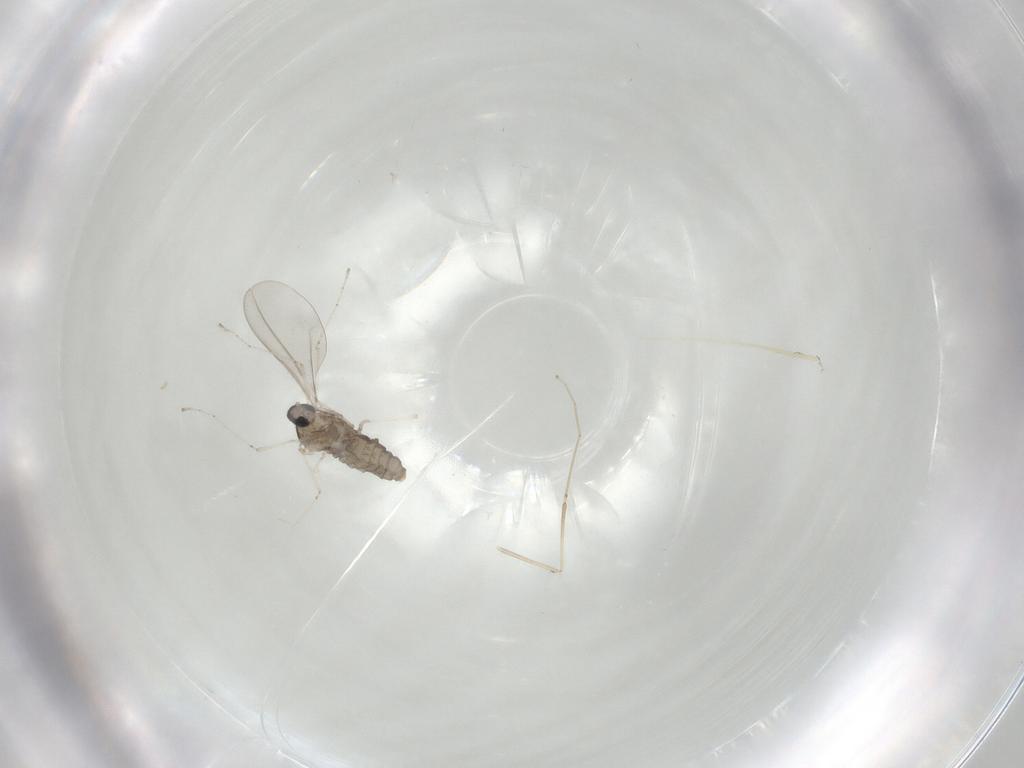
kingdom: Animalia
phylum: Arthropoda
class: Insecta
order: Diptera
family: Cecidomyiidae
